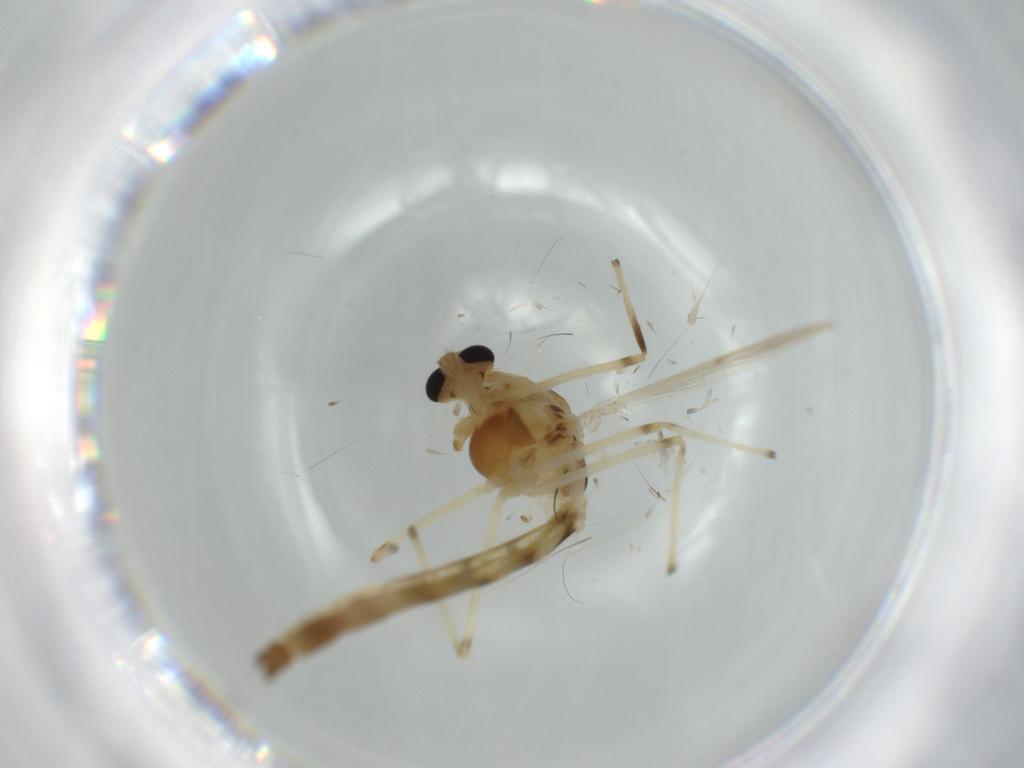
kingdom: Animalia
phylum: Arthropoda
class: Insecta
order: Diptera
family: Chironomidae
